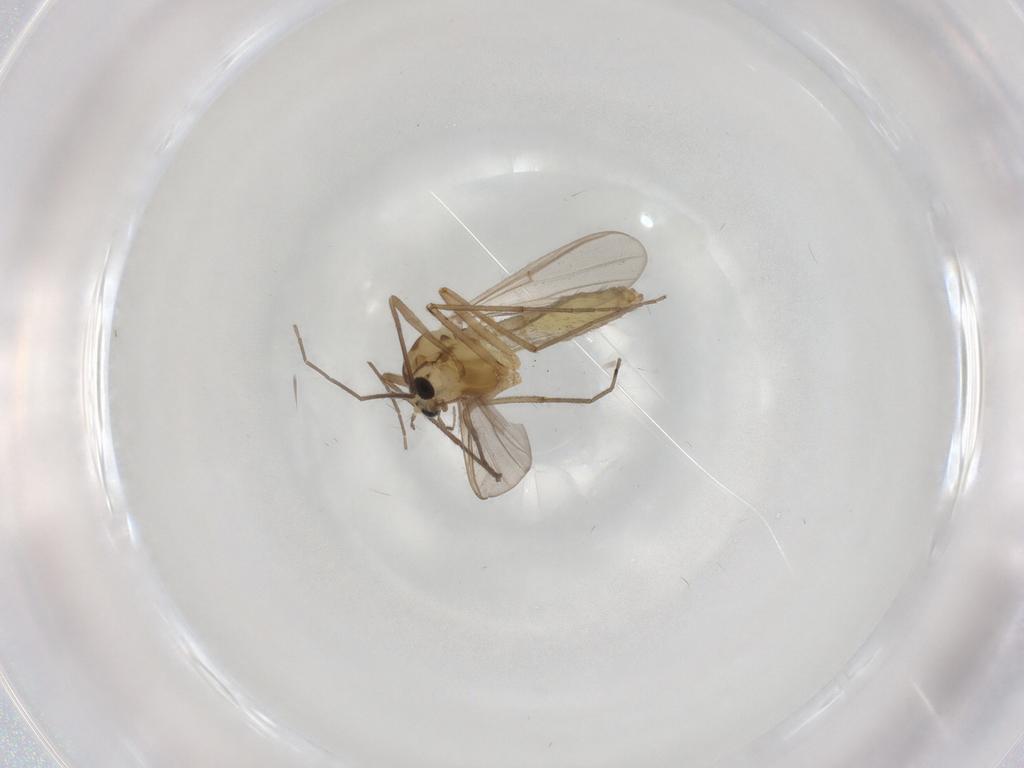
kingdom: Animalia
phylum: Arthropoda
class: Insecta
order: Diptera
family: Chironomidae
